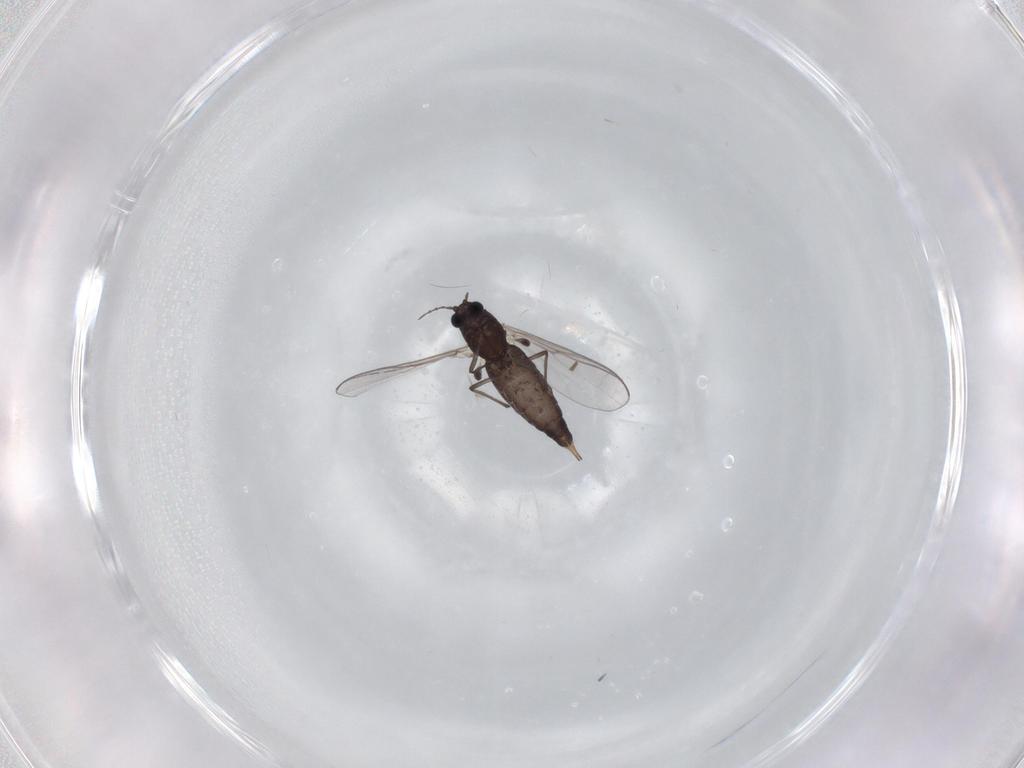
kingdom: Animalia
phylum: Arthropoda
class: Insecta
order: Diptera
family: Chironomidae
